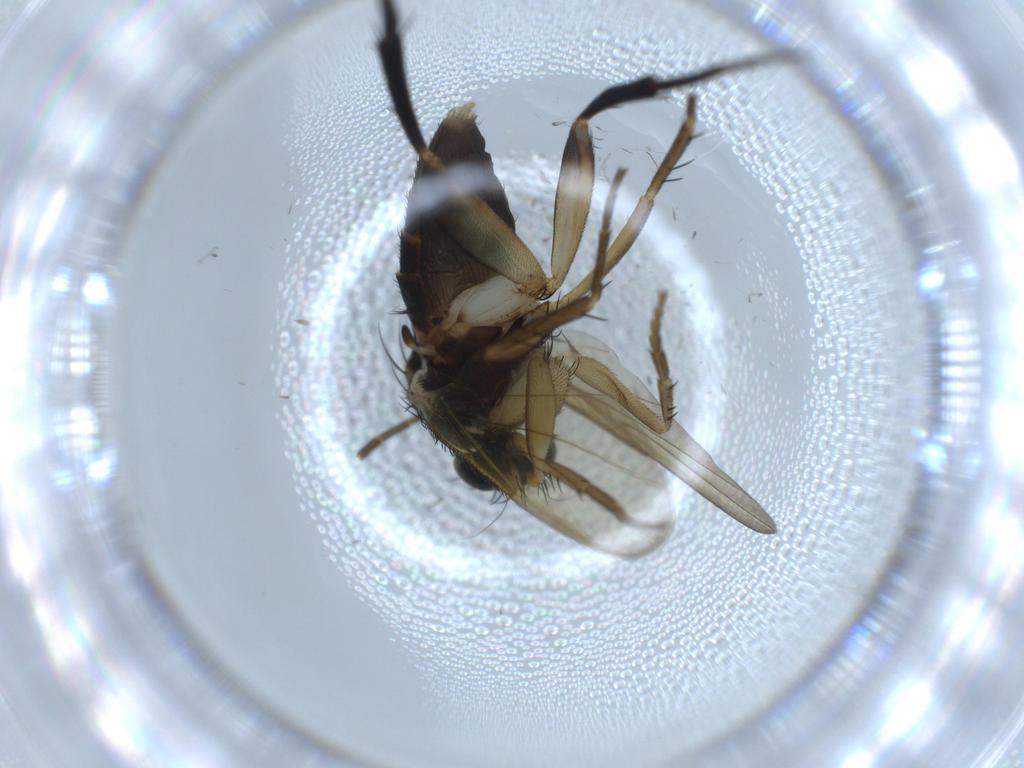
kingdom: Animalia
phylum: Arthropoda
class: Insecta
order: Diptera
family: Phoridae
